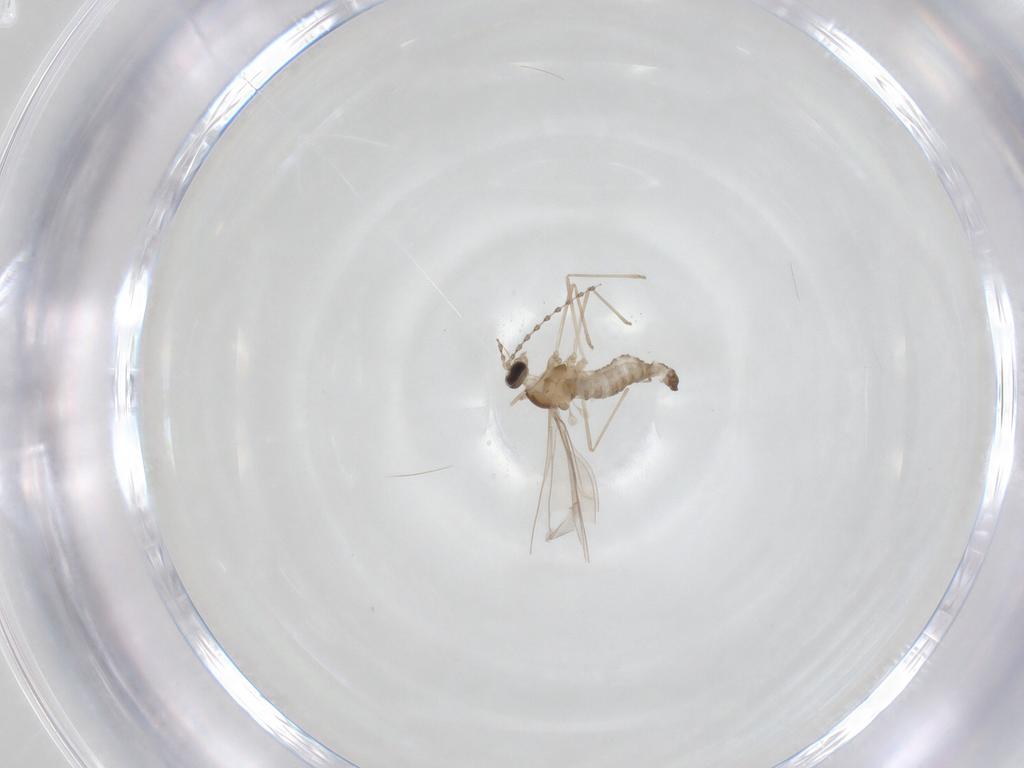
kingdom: Animalia
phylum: Arthropoda
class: Insecta
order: Diptera
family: Cecidomyiidae
